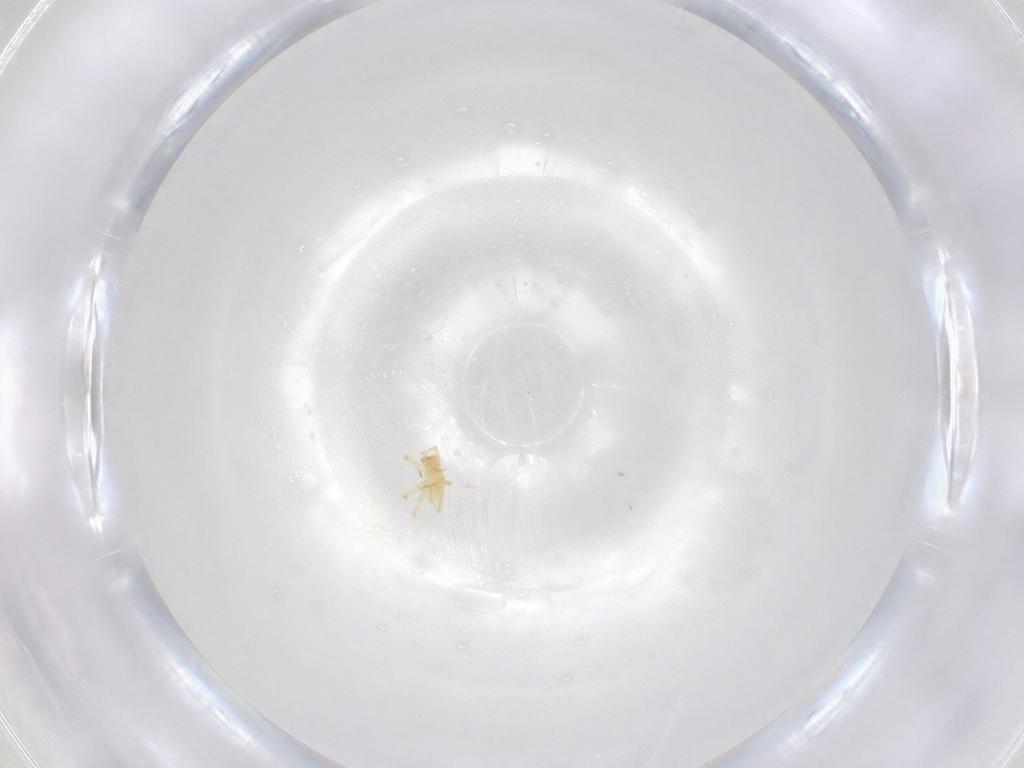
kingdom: Animalia
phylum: Arthropoda
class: Arachnida
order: Trombidiformes
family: Erythraeidae
